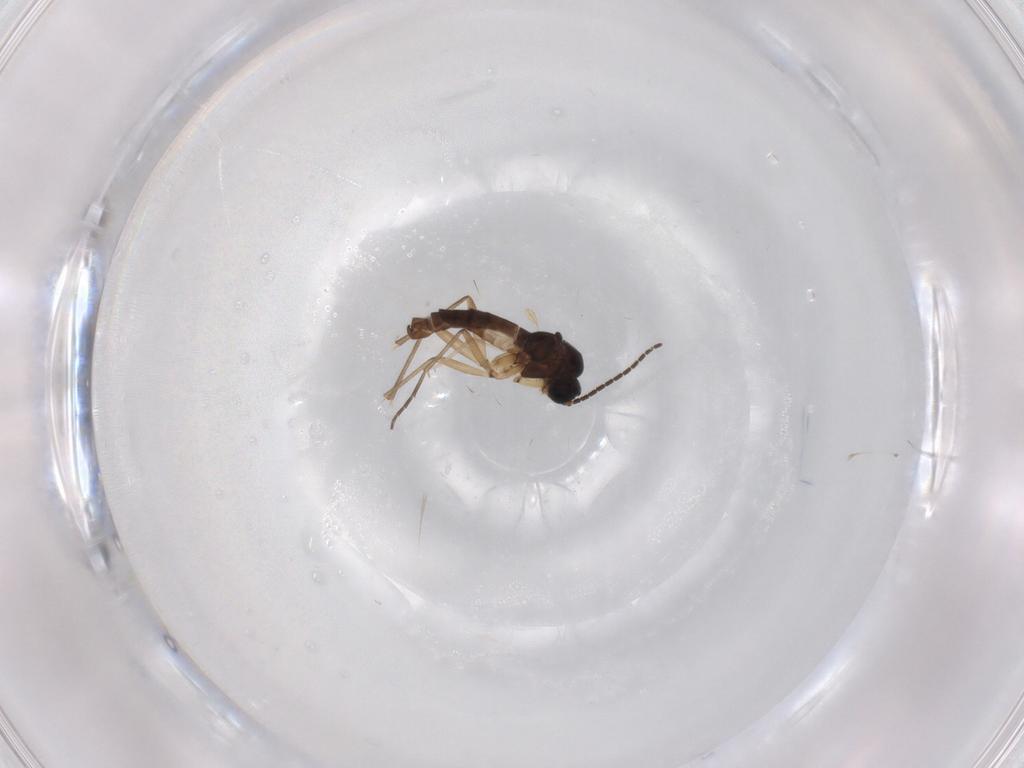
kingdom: Animalia
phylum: Arthropoda
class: Insecta
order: Diptera
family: Sciaridae
